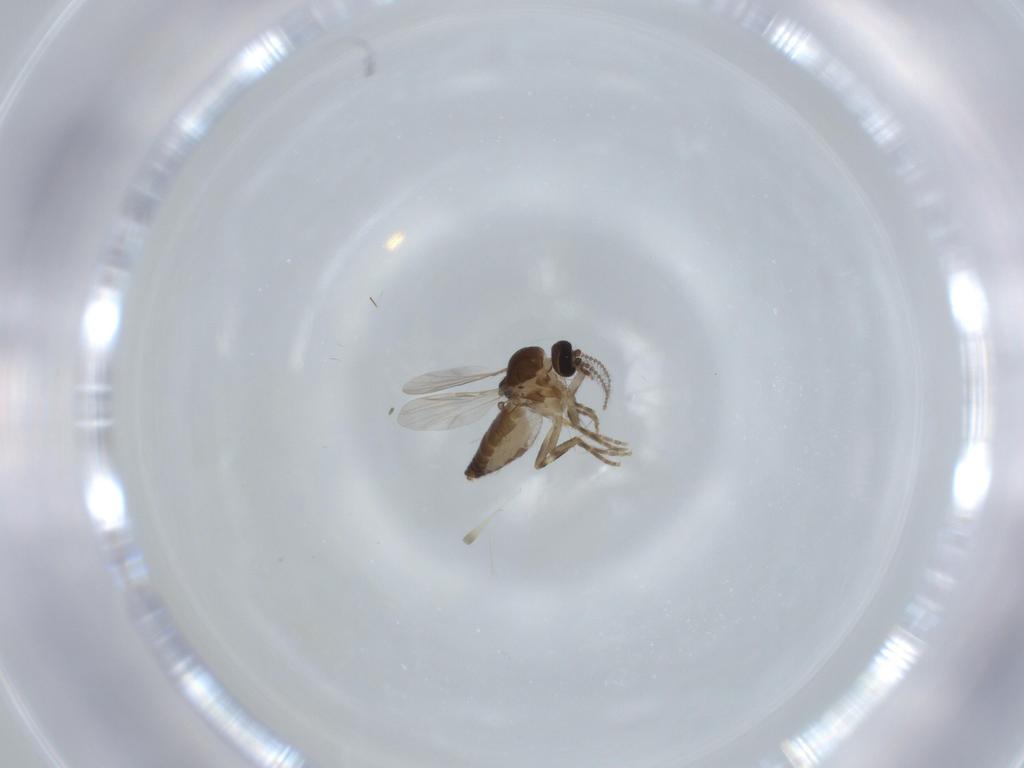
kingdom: Animalia
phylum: Arthropoda
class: Insecta
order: Diptera
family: Ceratopogonidae
